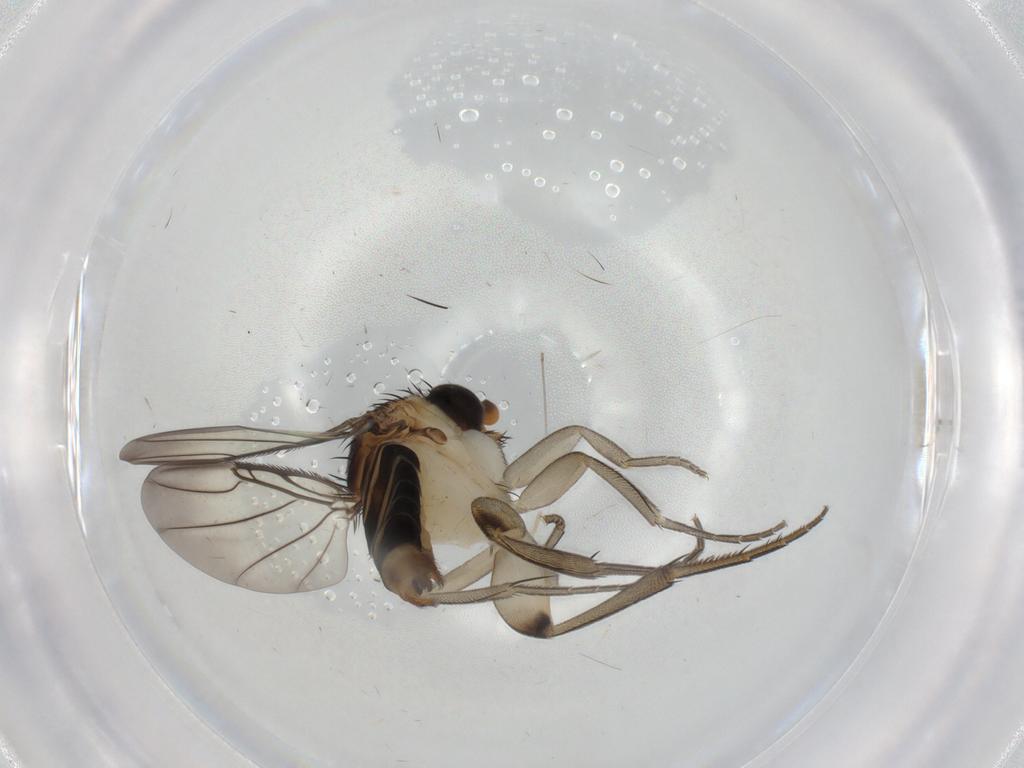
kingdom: Animalia
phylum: Arthropoda
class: Insecta
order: Diptera
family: Phoridae
